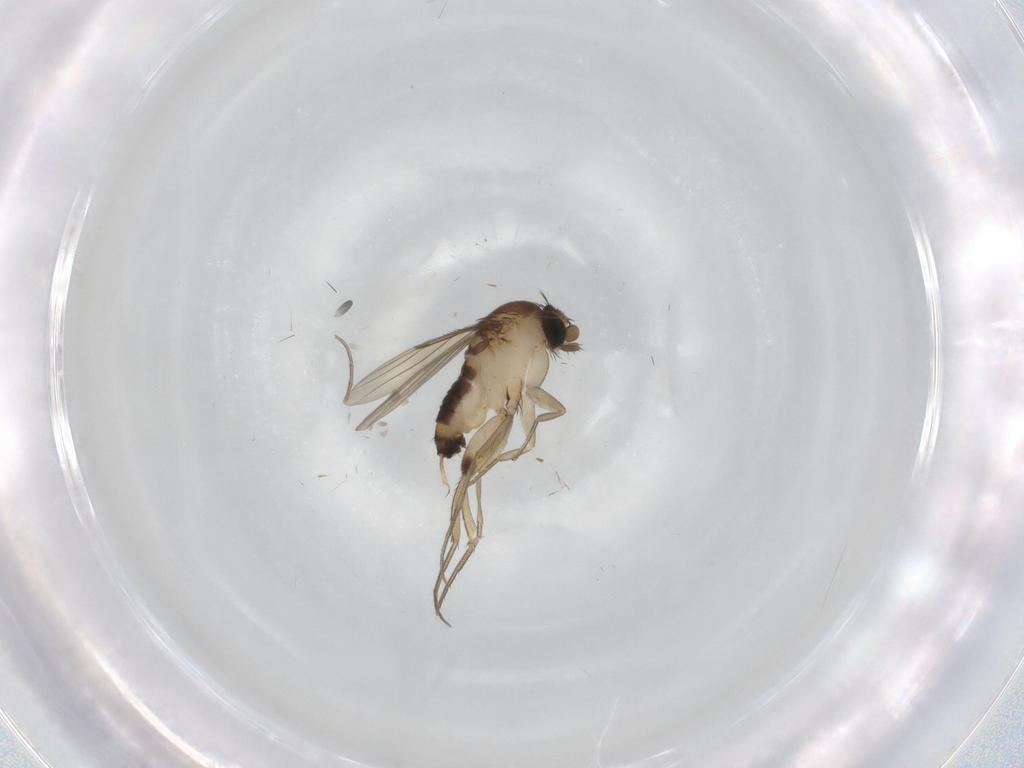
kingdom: Animalia
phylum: Arthropoda
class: Insecta
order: Diptera
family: Phoridae
